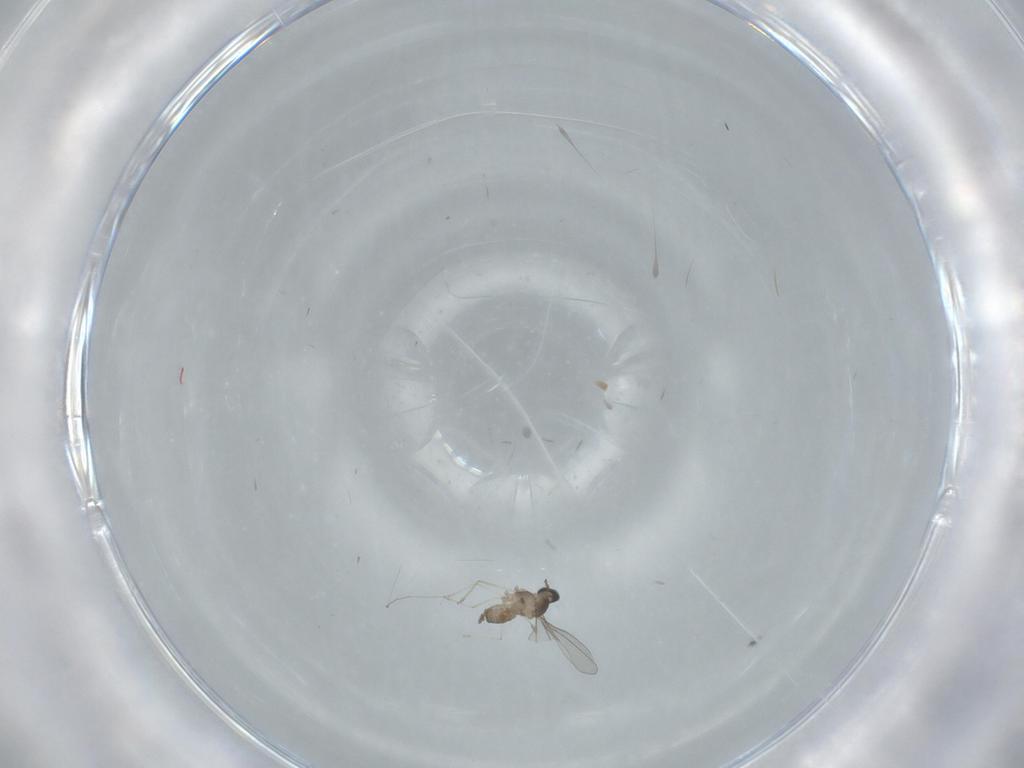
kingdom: Animalia
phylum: Arthropoda
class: Insecta
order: Diptera
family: Cecidomyiidae
